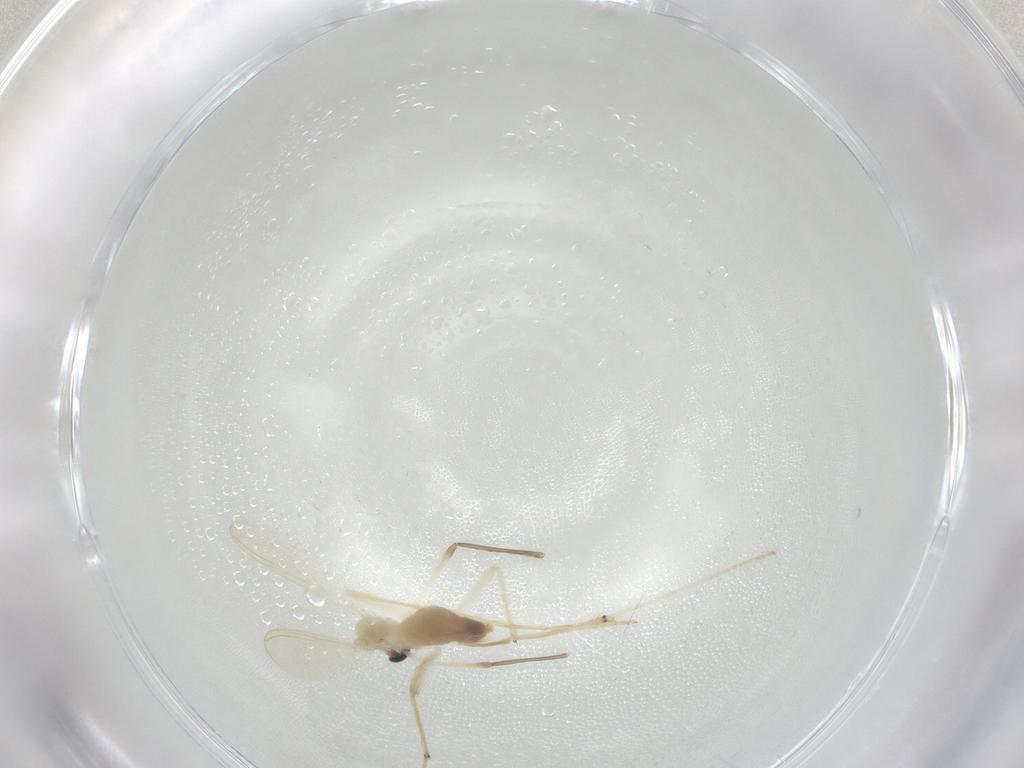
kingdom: Animalia
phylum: Arthropoda
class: Insecta
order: Diptera
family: Chironomidae
